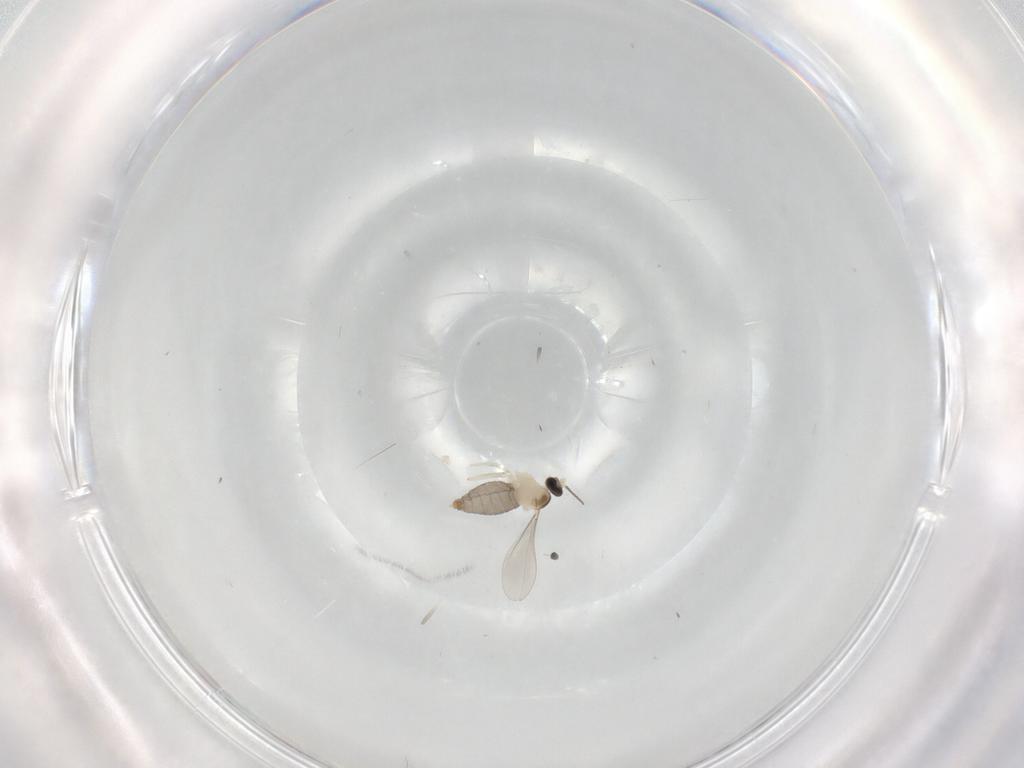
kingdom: Animalia
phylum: Arthropoda
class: Insecta
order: Diptera
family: Cecidomyiidae
